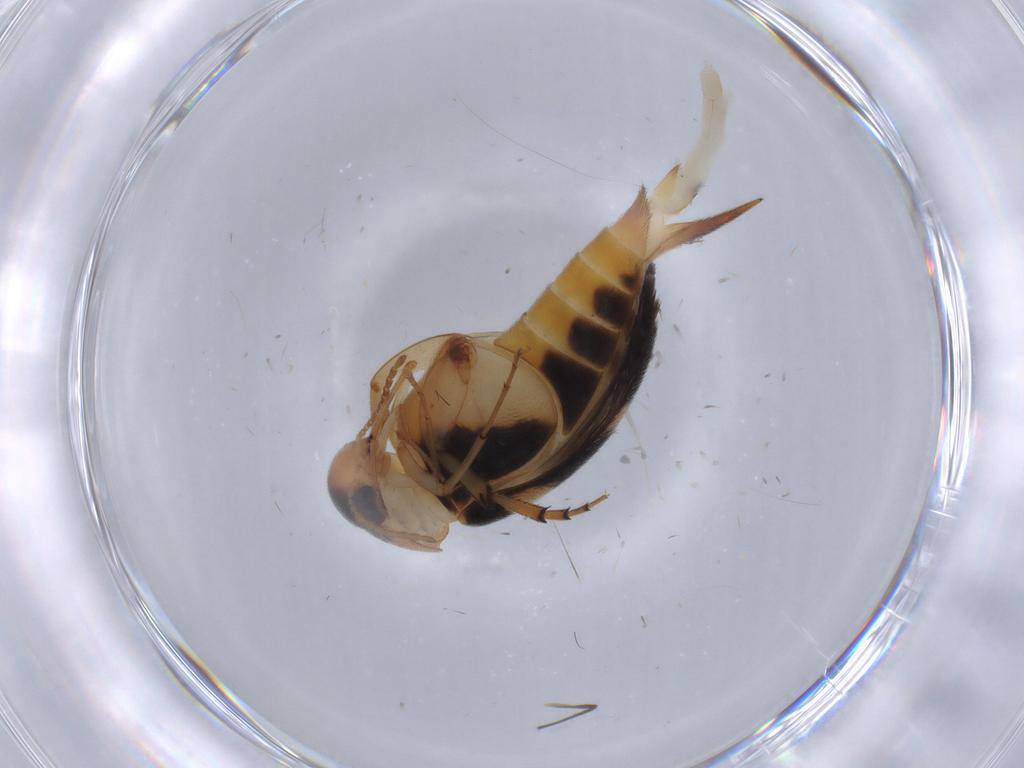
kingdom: Animalia
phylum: Arthropoda
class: Insecta
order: Coleoptera
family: Mordellidae
